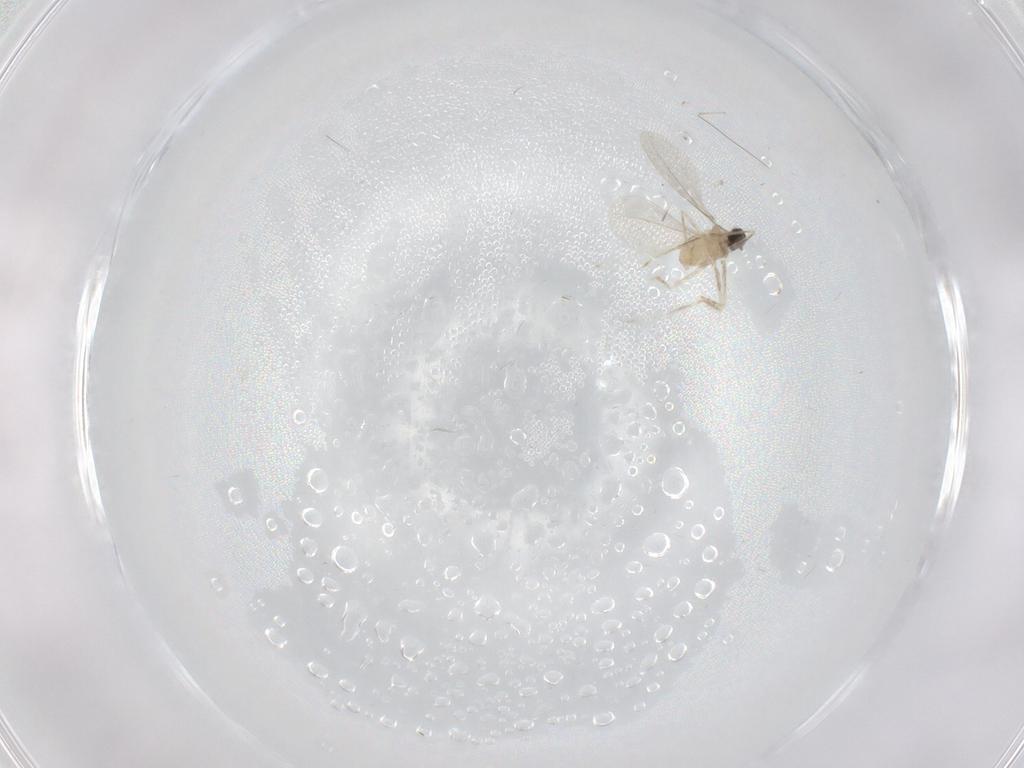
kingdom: Animalia
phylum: Arthropoda
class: Insecta
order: Diptera
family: Cecidomyiidae
